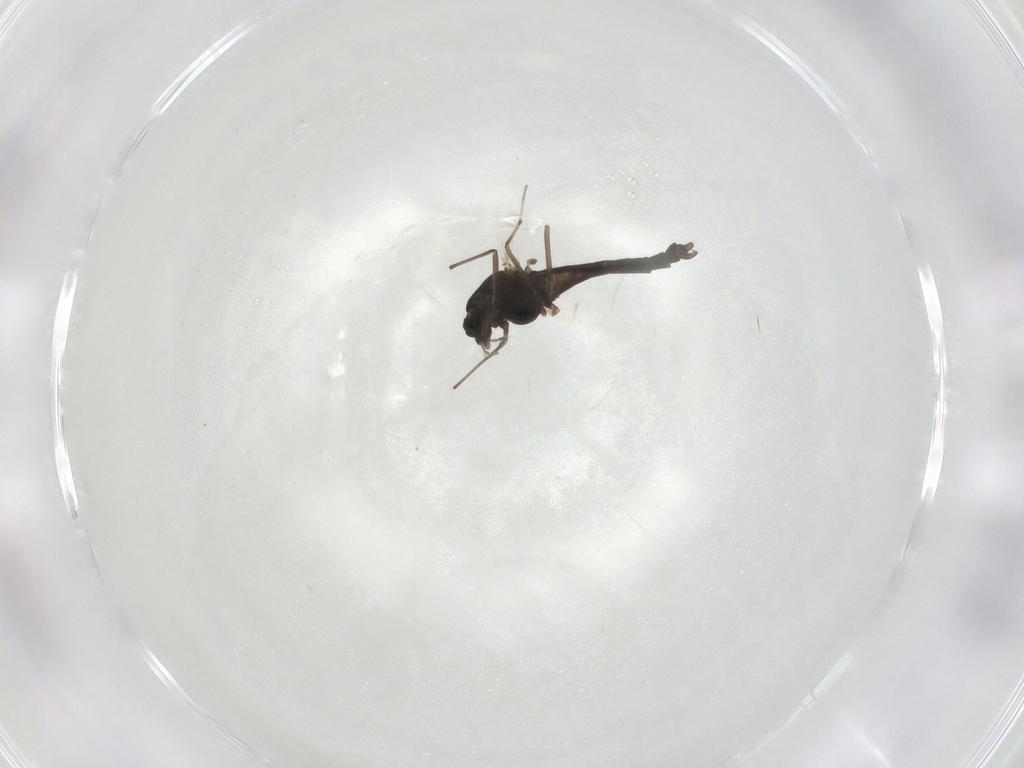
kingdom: Animalia
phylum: Arthropoda
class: Insecta
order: Diptera
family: Chironomidae
